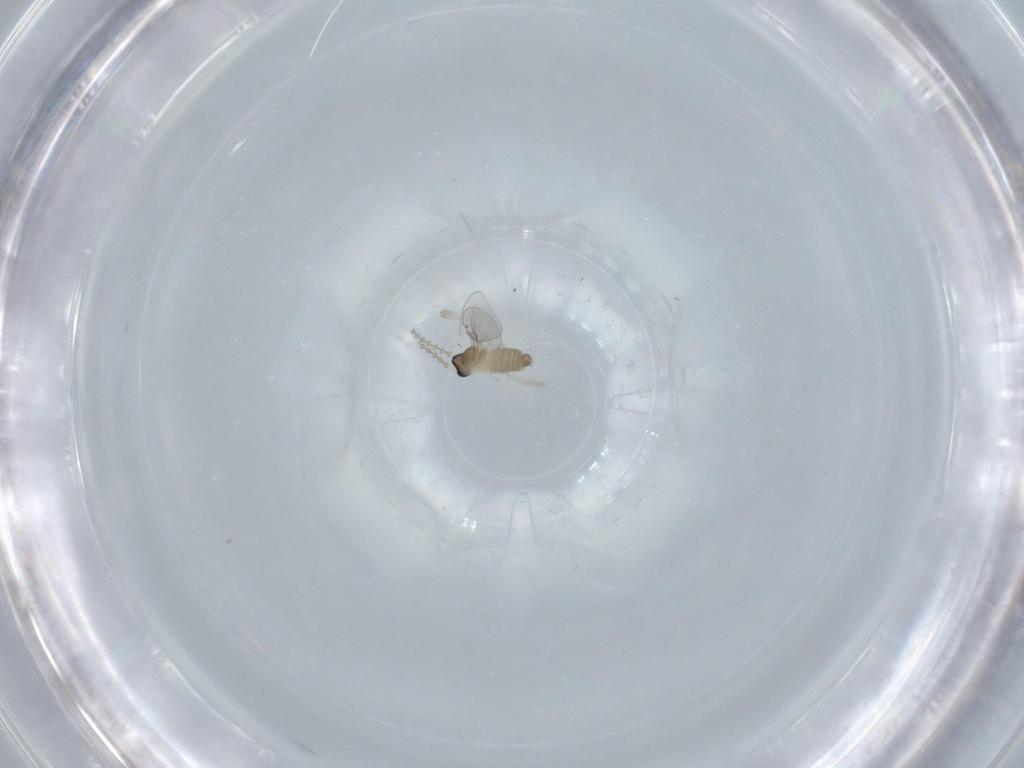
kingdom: Animalia
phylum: Arthropoda
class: Insecta
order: Diptera
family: Cecidomyiidae
